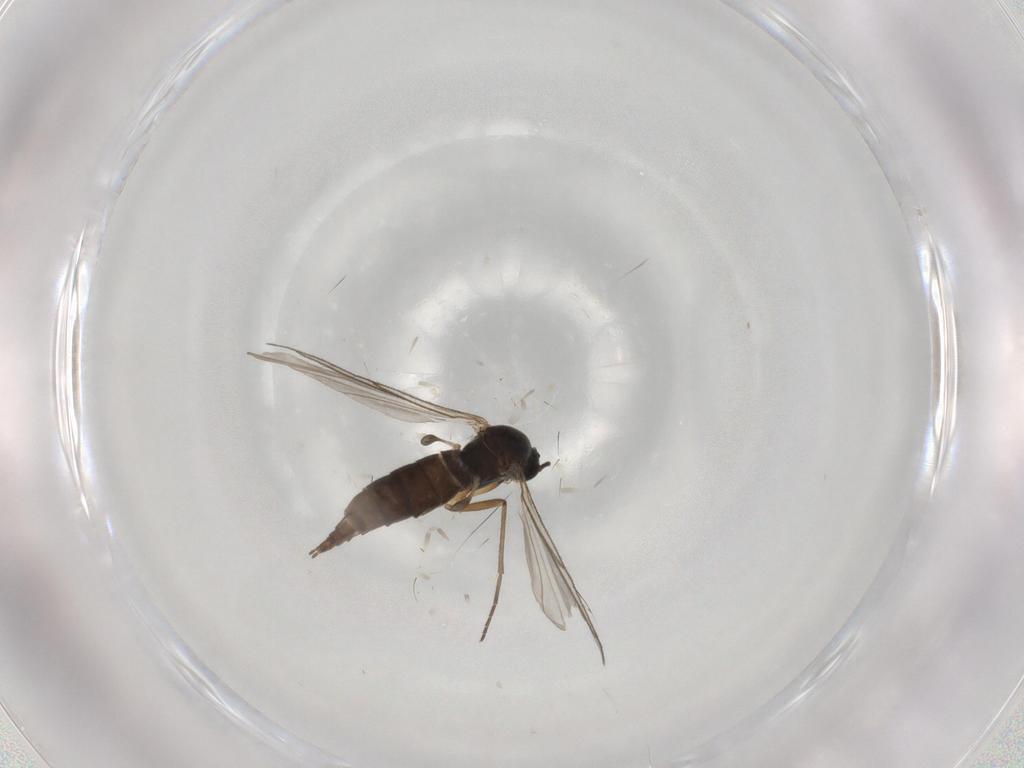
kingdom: Animalia
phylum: Arthropoda
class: Insecta
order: Diptera
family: Sciaridae
